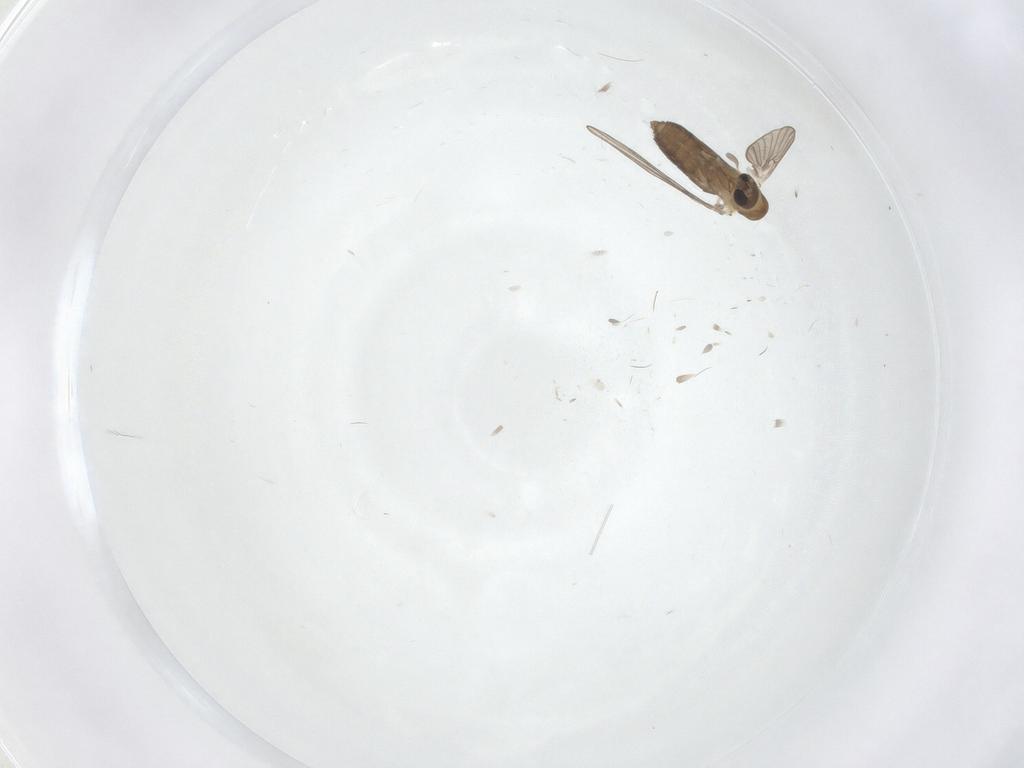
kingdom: Animalia
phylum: Arthropoda
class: Insecta
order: Diptera
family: Chironomidae
